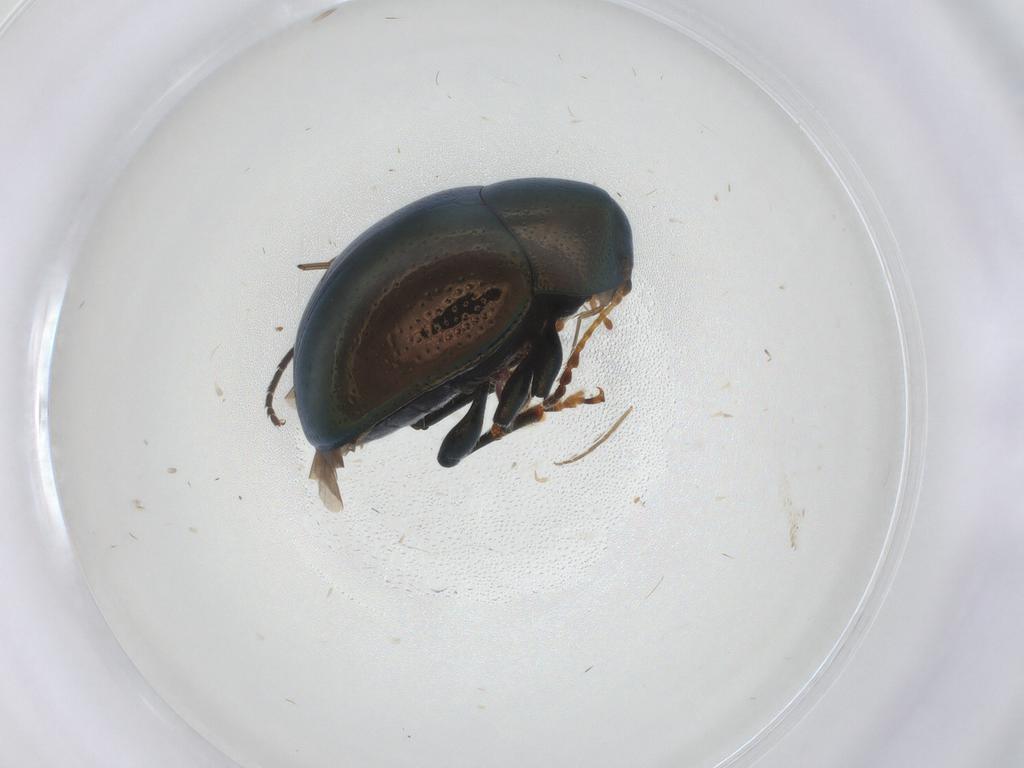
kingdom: Animalia
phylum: Arthropoda
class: Insecta
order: Coleoptera
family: Chrysomelidae
